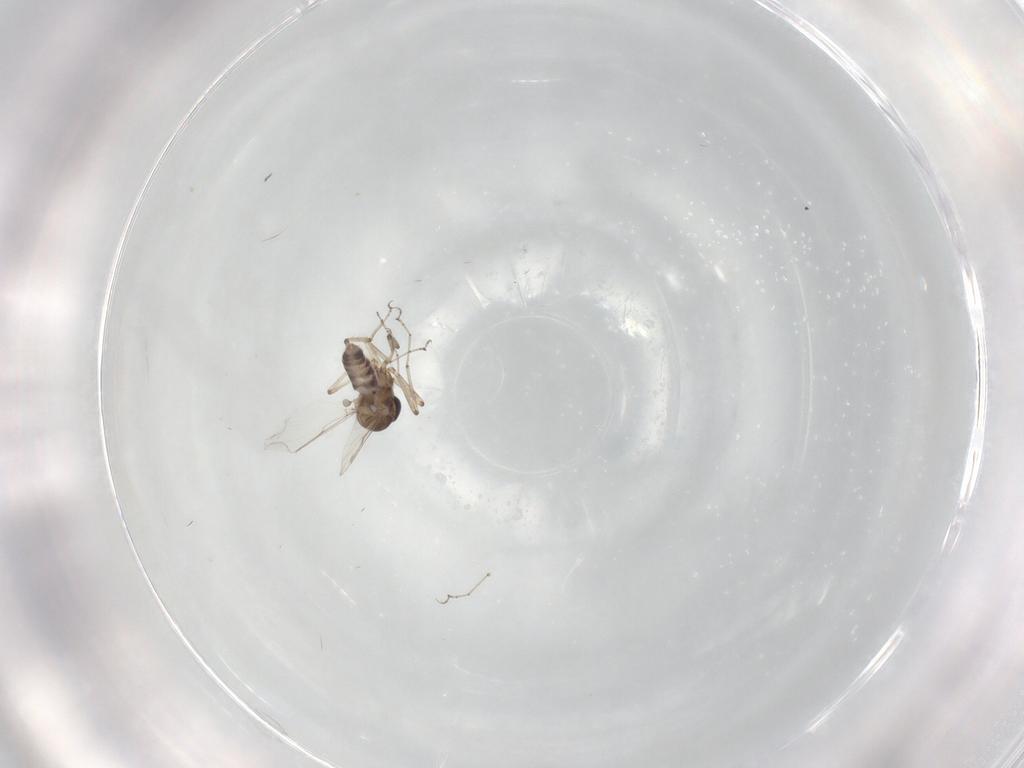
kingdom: Animalia
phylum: Arthropoda
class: Insecta
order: Diptera
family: Ceratopogonidae
